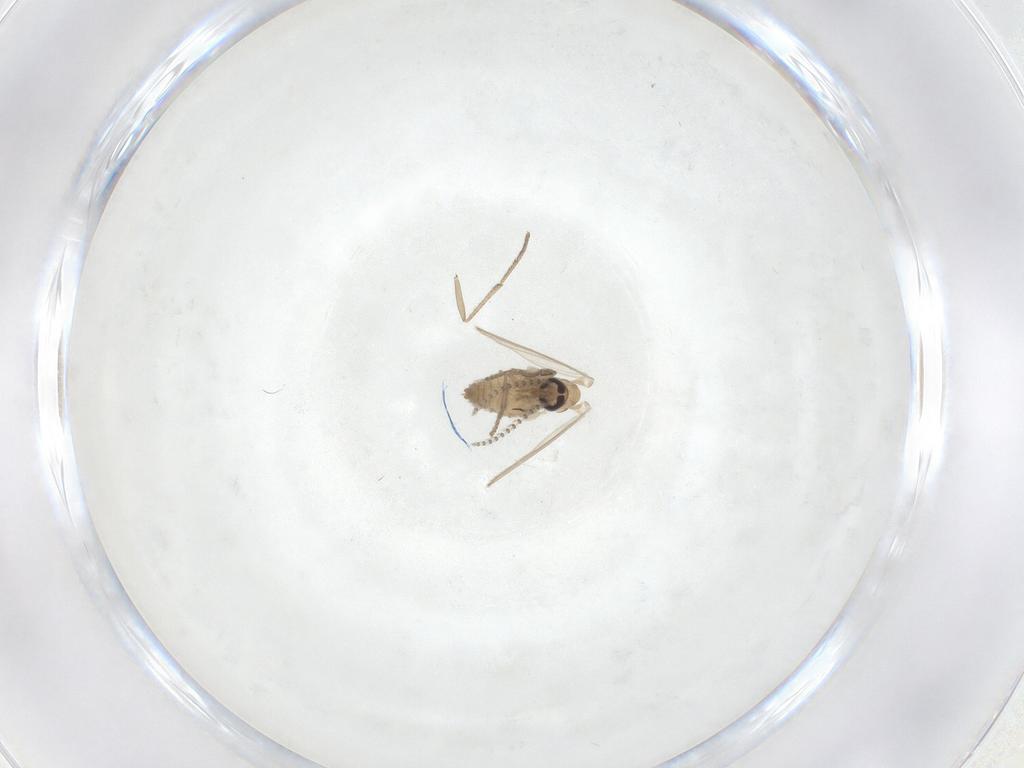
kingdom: Animalia
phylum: Arthropoda
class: Insecta
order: Diptera
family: Psychodidae
